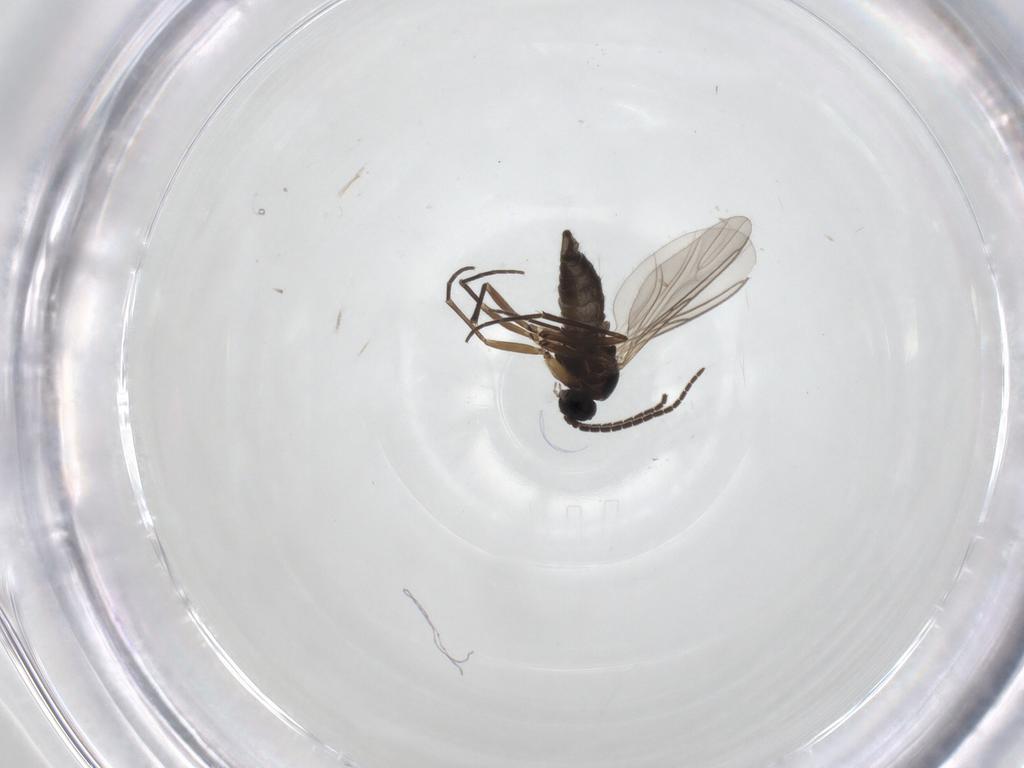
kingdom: Animalia
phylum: Arthropoda
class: Insecta
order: Diptera
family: Sciaridae
